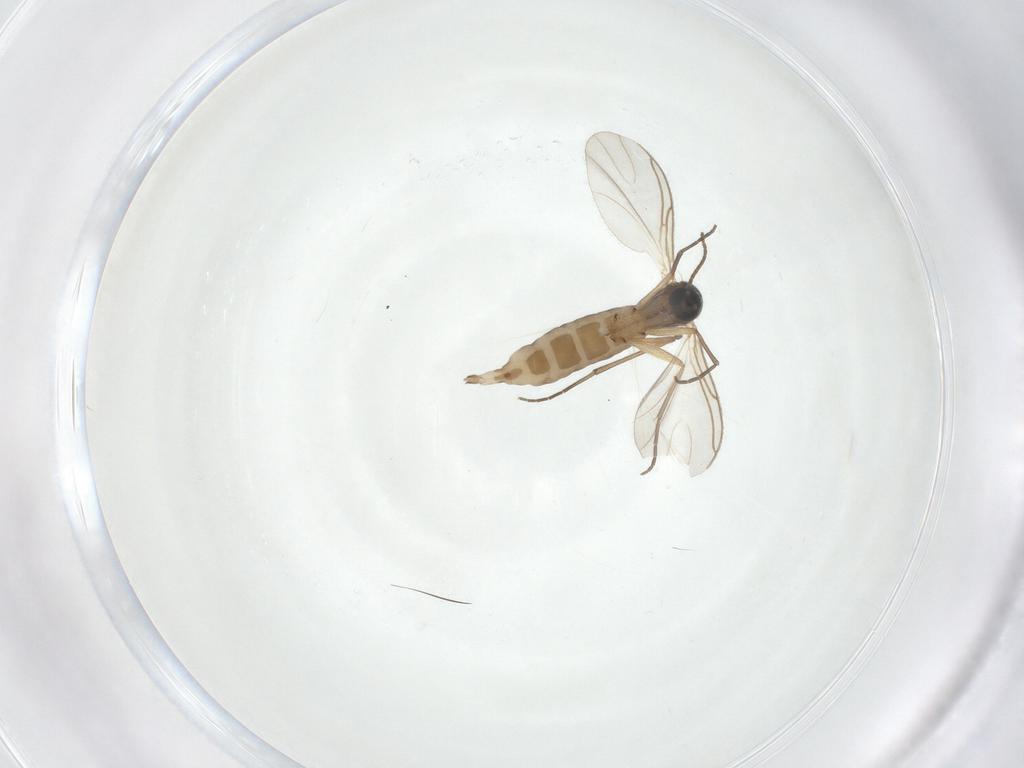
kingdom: Animalia
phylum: Arthropoda
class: Insecta
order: Diptera
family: Sciaridae
